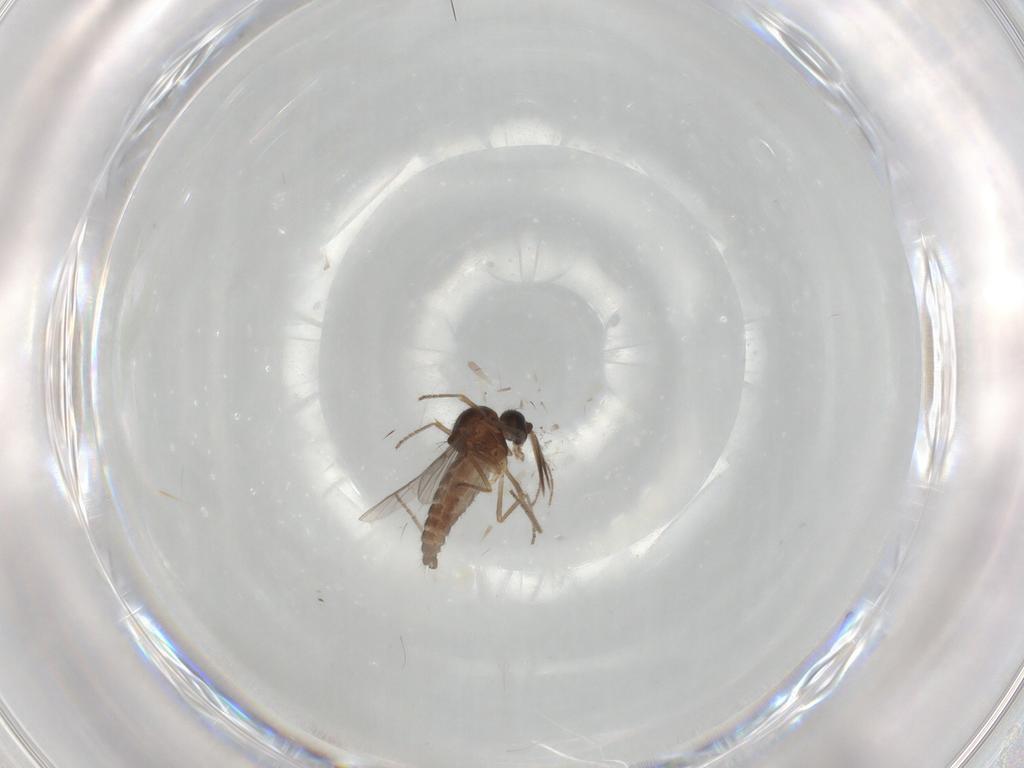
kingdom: Animalia
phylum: Arthropoda
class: Insecta
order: Diptera
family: Ceratopogonidae
